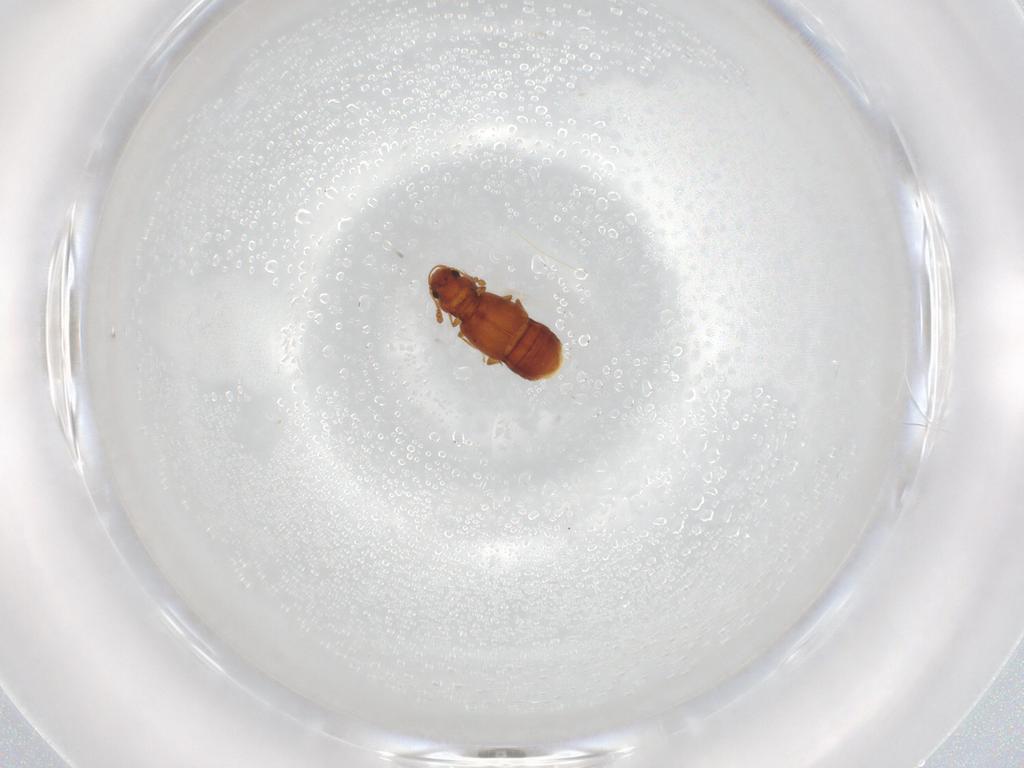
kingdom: Animalia
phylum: Arthropoda
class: Insecta
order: Coleoptera
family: Staphylinidae
